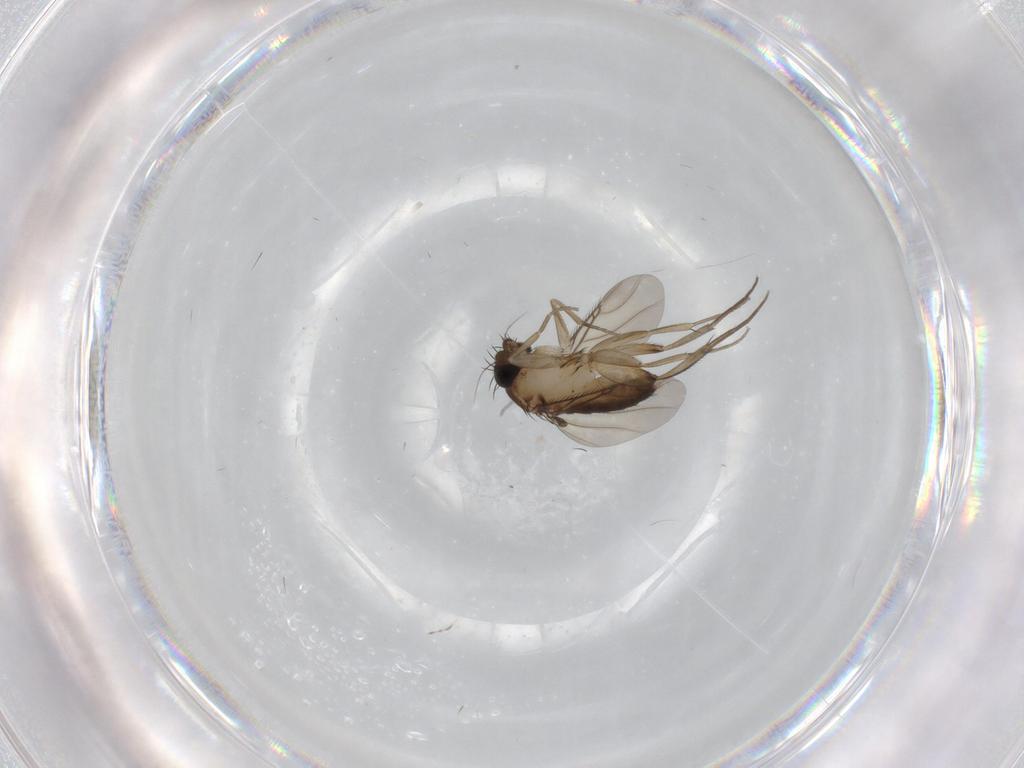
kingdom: Animalia
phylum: Arthropoda
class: Insecta
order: Diptera
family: Phoridae
